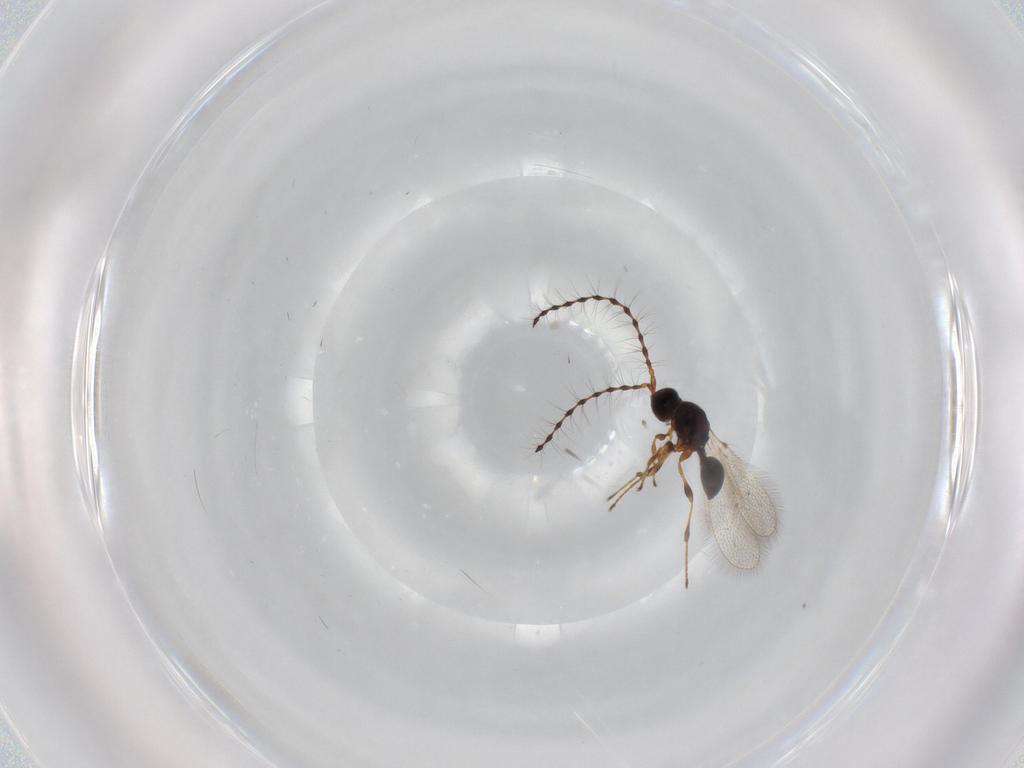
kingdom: Animalia
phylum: Arthropoda
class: Insecta
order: Hymenoptera
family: Diapriidae
